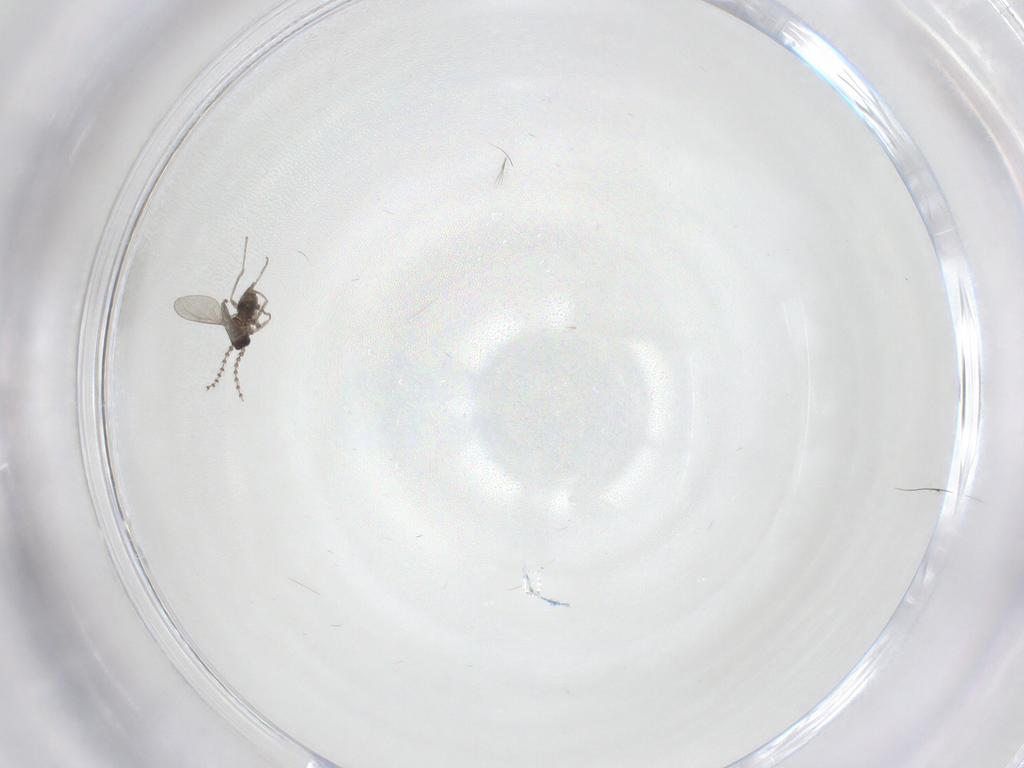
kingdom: Animalia
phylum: Arthropoda
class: Insecta
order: Diptera
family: Cecidomyiidae
